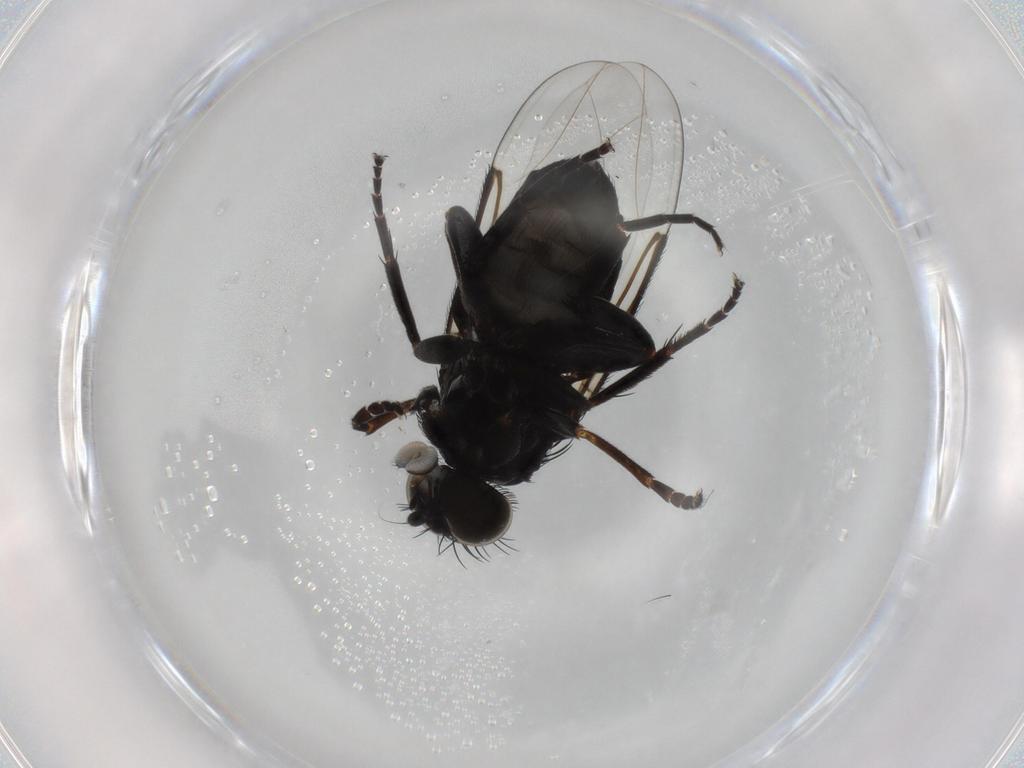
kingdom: Animalia
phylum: Arthropoda
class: Insecta
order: Diptera
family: Phoridae
